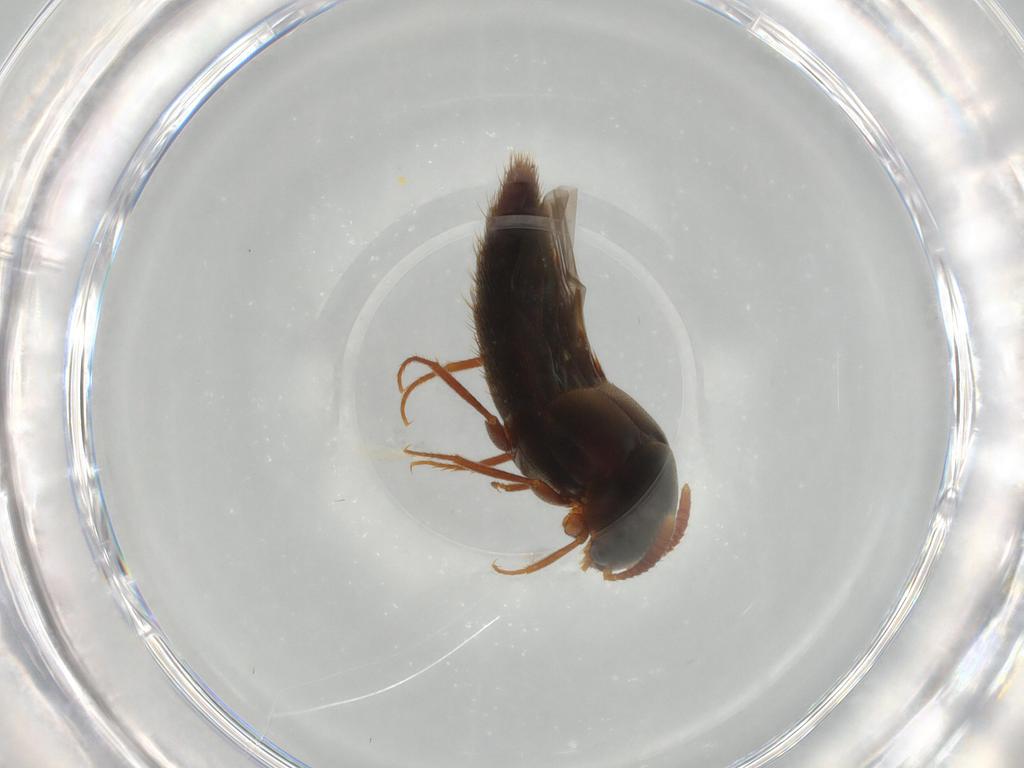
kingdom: Animalia
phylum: Arthropoda
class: Insecta
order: Coleoptera
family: Staphylinidae
